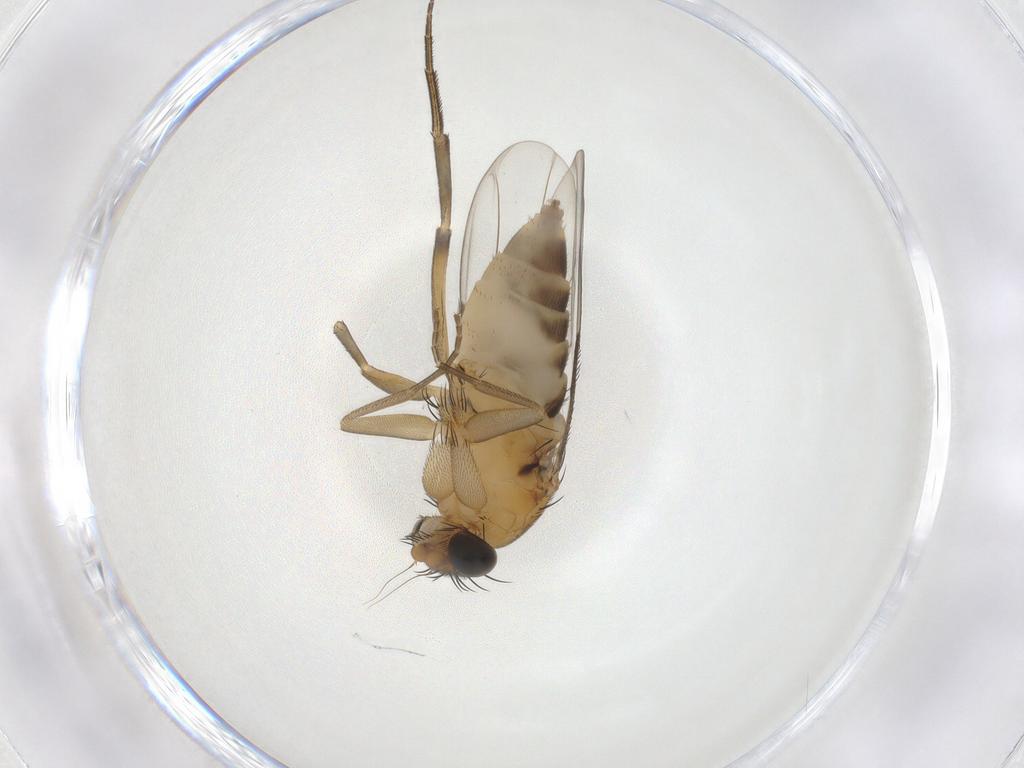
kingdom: Animalia
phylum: Arthropoda
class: Insecta
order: Diptera
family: Phoridae
